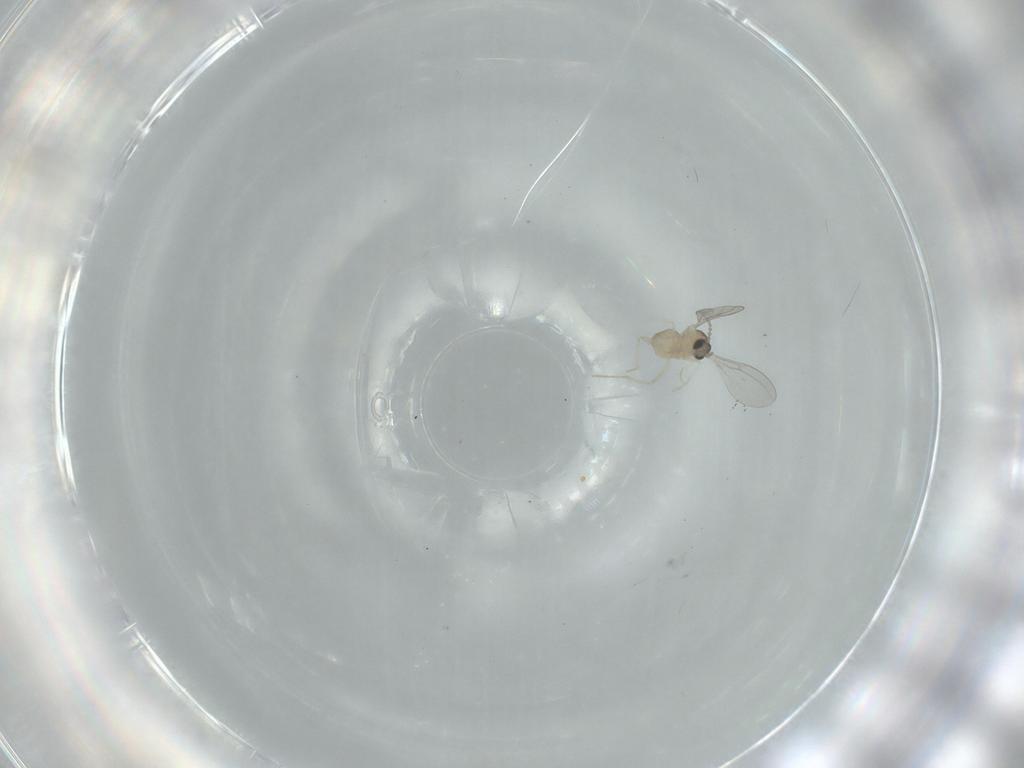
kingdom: Animalia
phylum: Arthropoda
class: Insecta
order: Diptera
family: Cecidomyiidae
